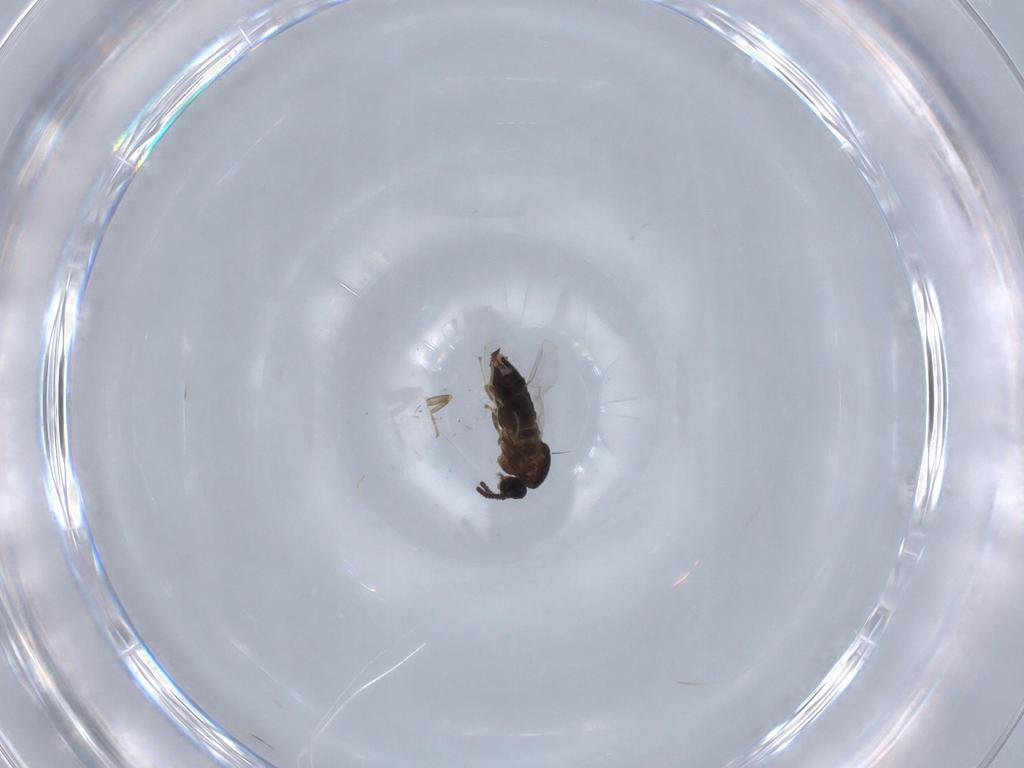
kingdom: Animalia
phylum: Arthropoda
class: Insecta
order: Diptera
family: Scatopsidae
